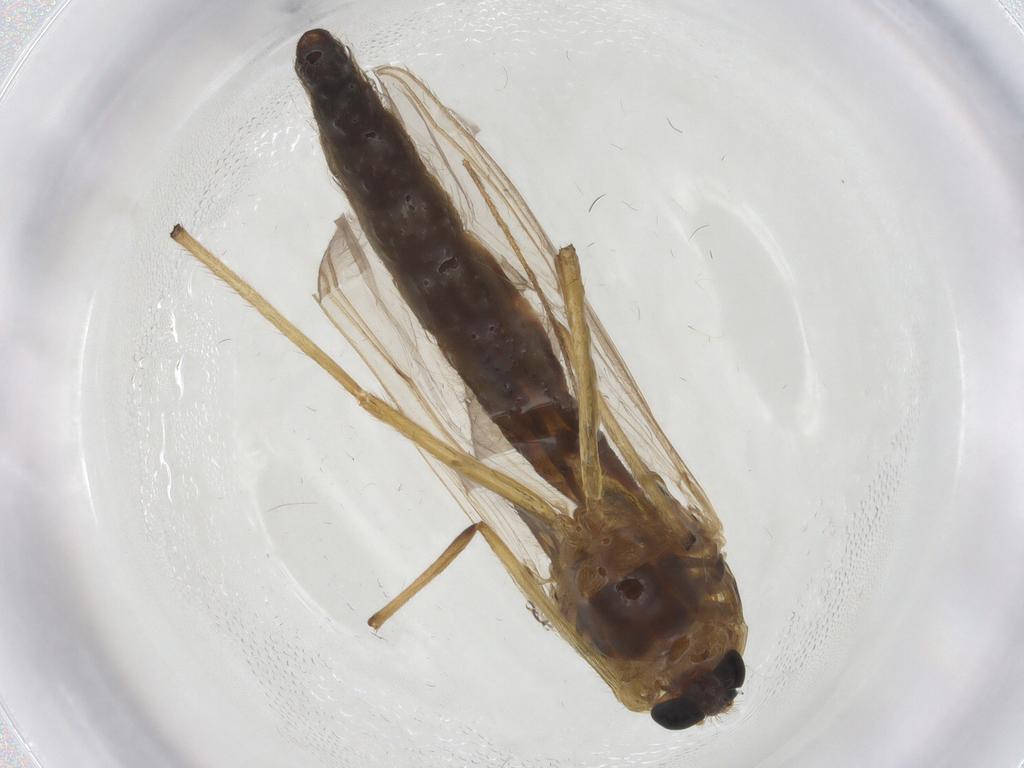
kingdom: Animalia
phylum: Arthropoda
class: Insecta
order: Diptera
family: Chironomidae
